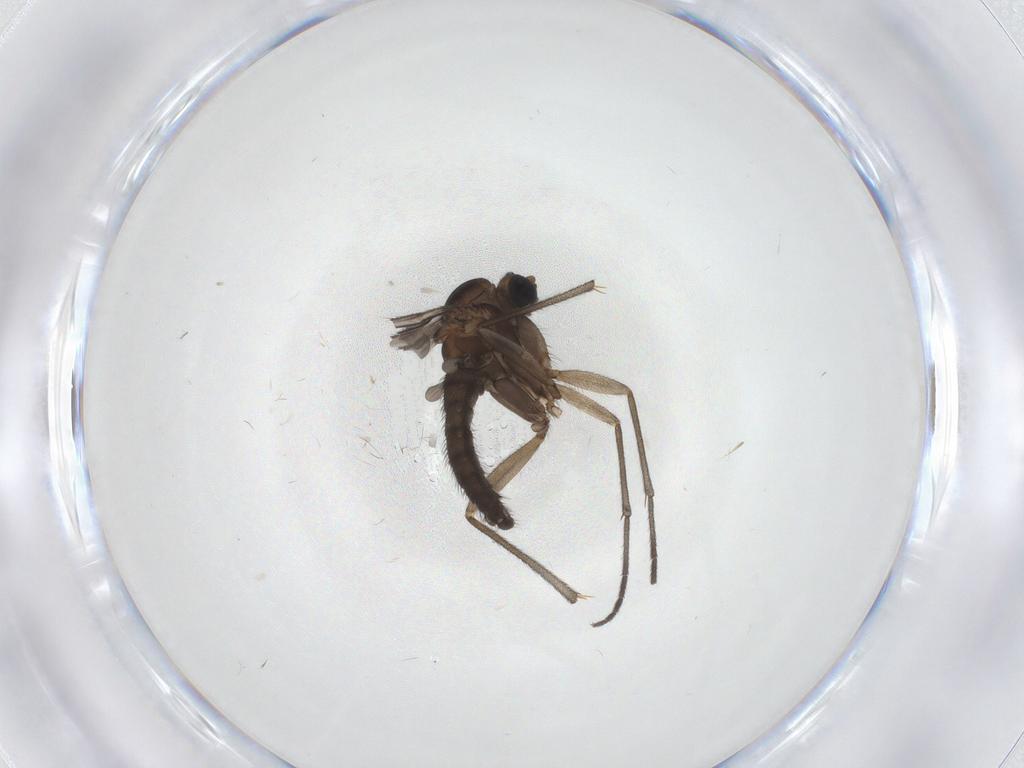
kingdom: Animalia
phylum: Arthropoda
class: Insecta
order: Diptera
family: Sciaridae
